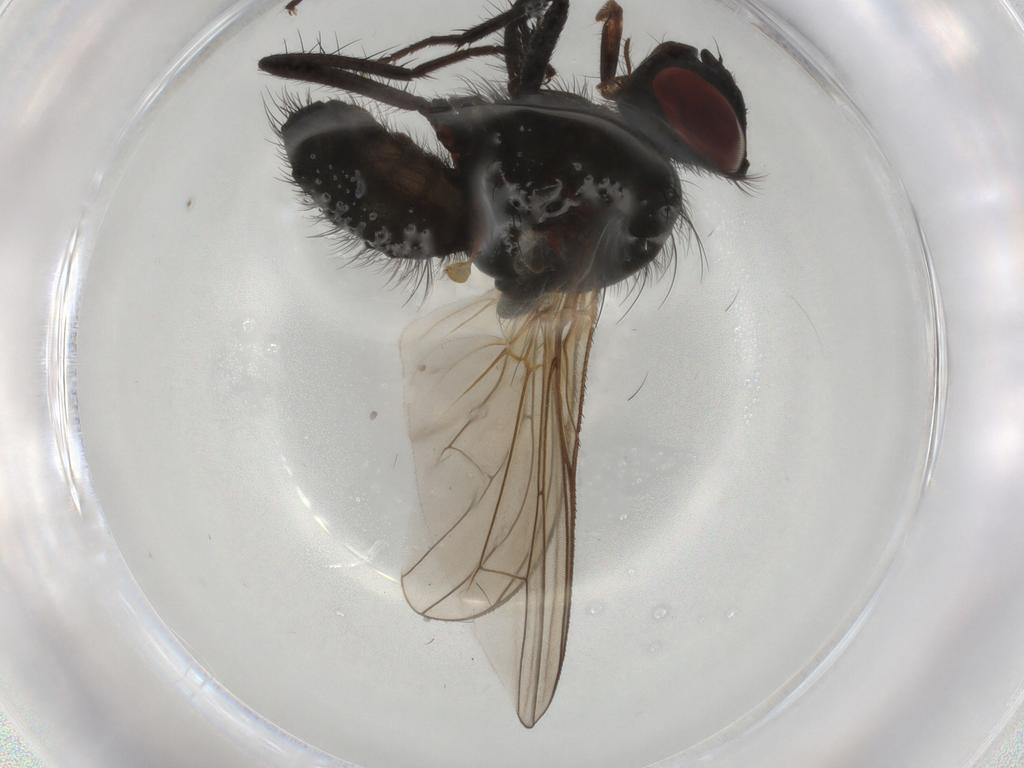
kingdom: Animalia
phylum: Arthropoda
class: Insecta
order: Diptera
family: Anthomyiidae
